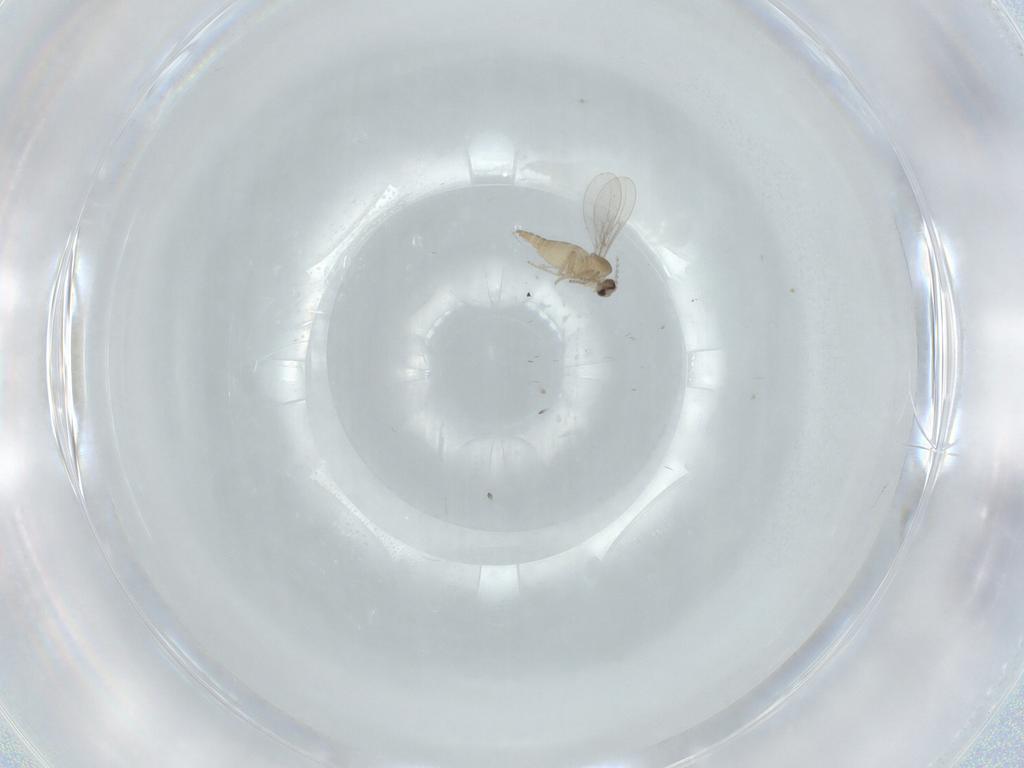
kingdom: Animalia
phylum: Arthropoda
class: Insecta
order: Diptera
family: Cecidomyiidae
